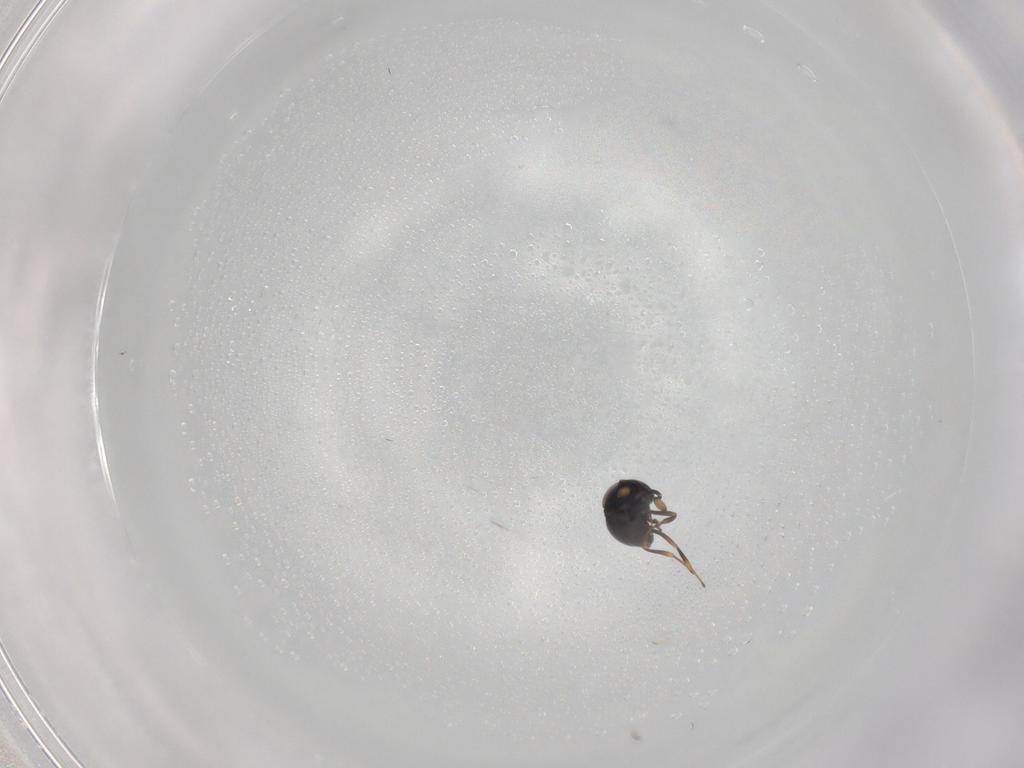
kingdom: Animalia
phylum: Arthropoda
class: Insecta
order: Hymenoptera
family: Scelionidae
